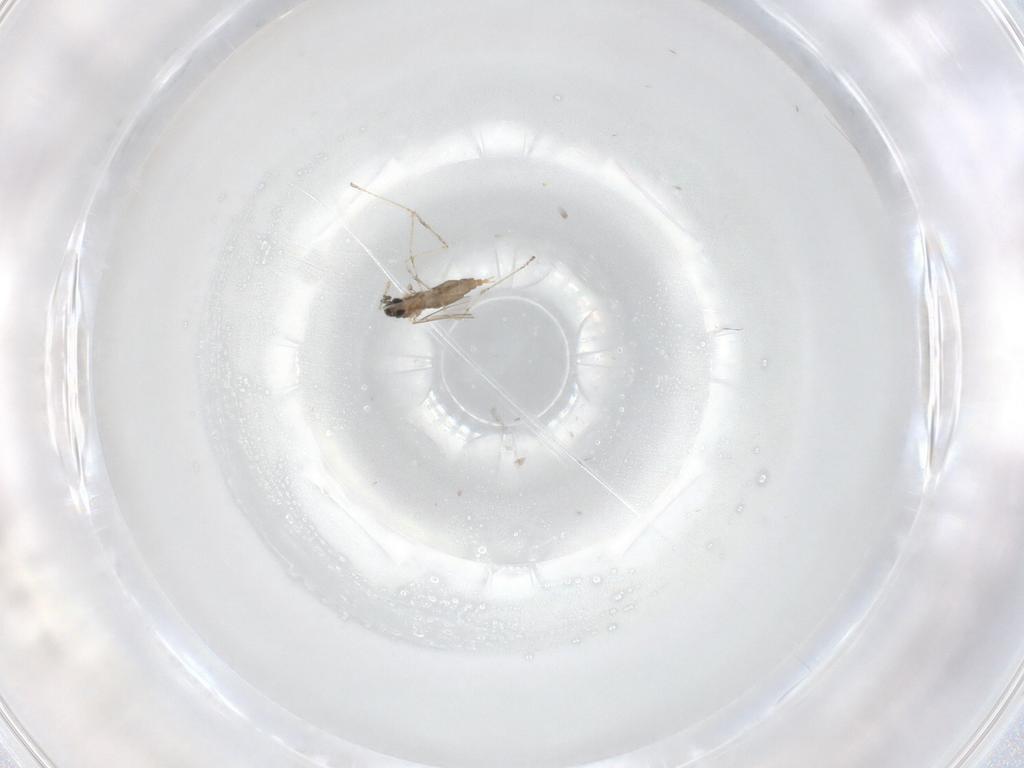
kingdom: Animalia
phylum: Arthropoda
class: Insecta
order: Diptera
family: Cecidomyiidae
